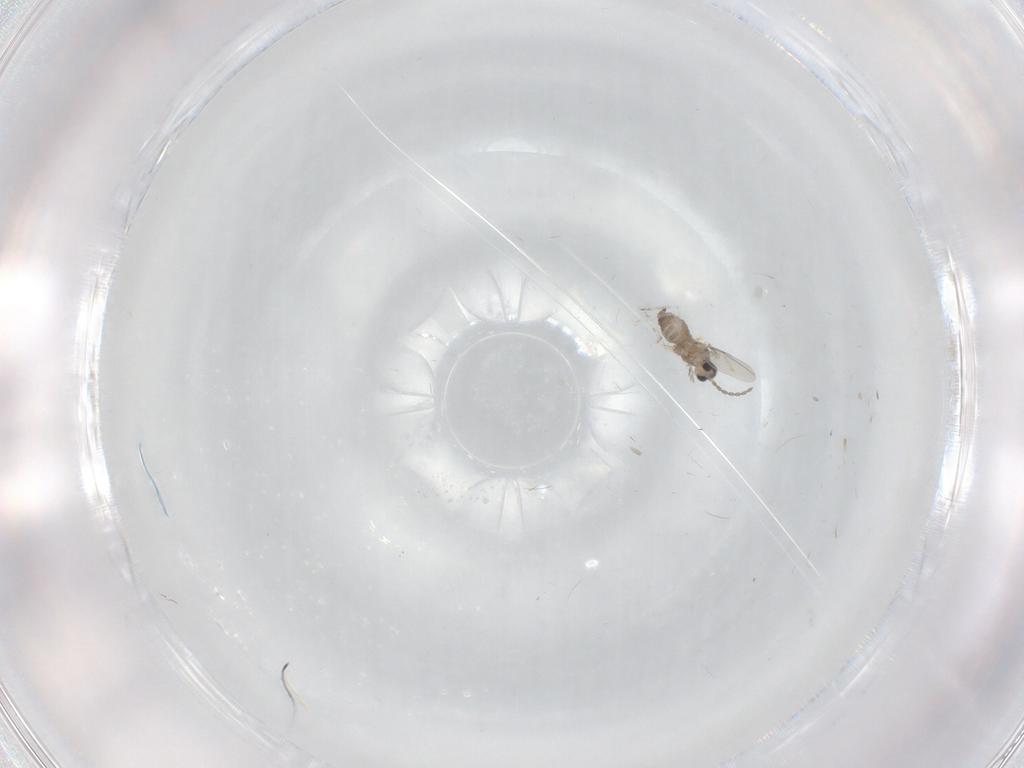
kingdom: Animalia
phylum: Arthropoda
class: Insecta
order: Diptera
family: Cecidomyiidae
